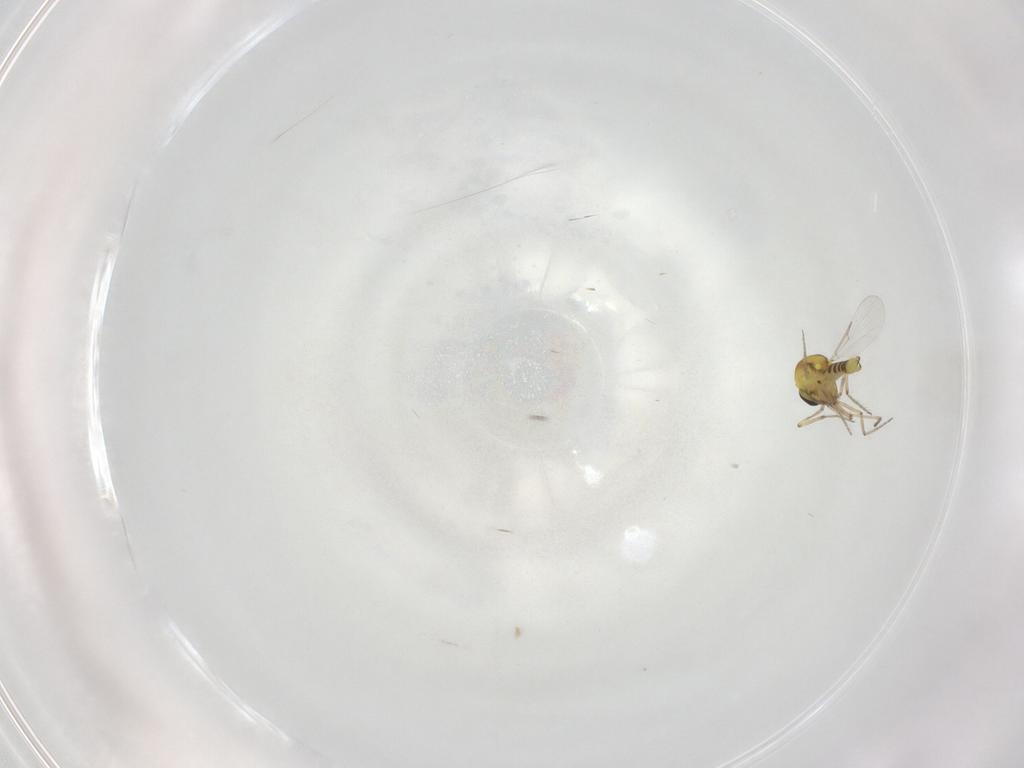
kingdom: Animalia
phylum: Arthropoda
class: Insecta
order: Diptera
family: Ceratopogonidae
